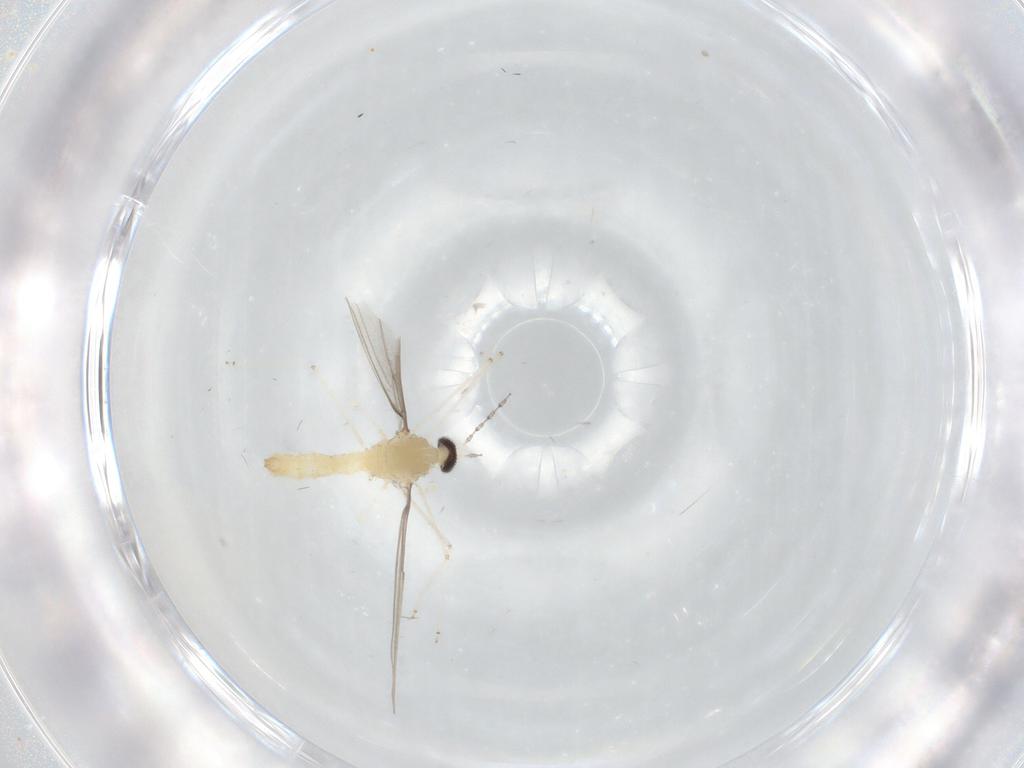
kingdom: Animalia
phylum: Arthropoda
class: Insecta
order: Diptera
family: Cecidomyiidae
